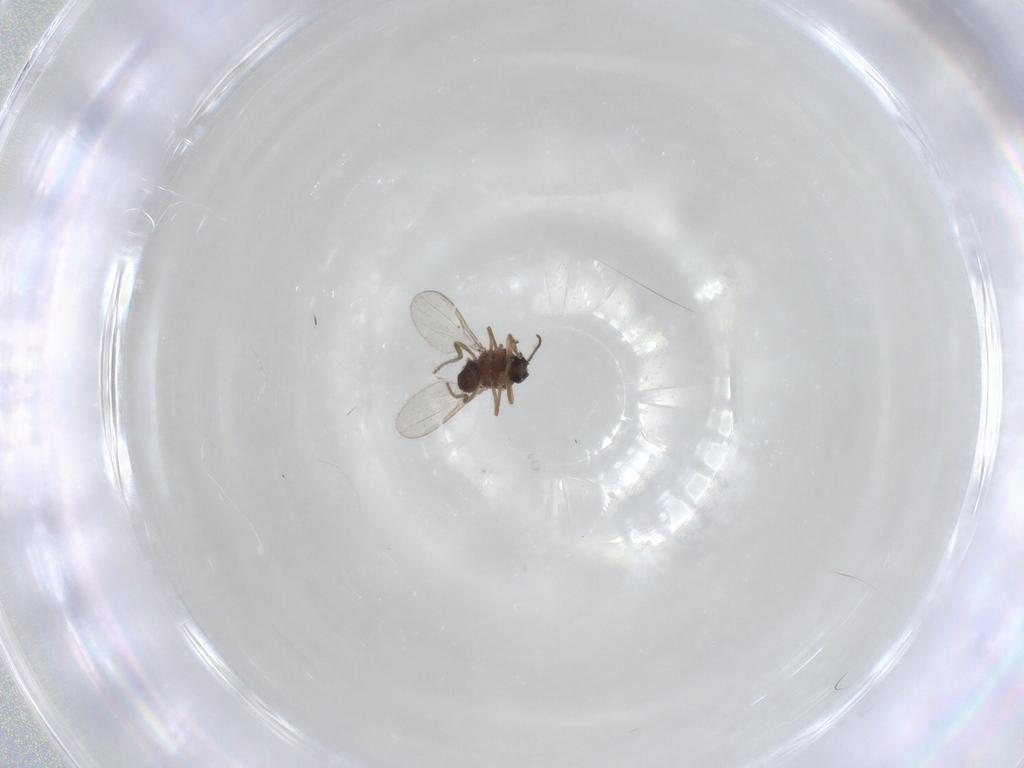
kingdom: Animalia
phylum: Arthropoda
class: Insecta
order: Diptera
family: Ceratopogonidae
